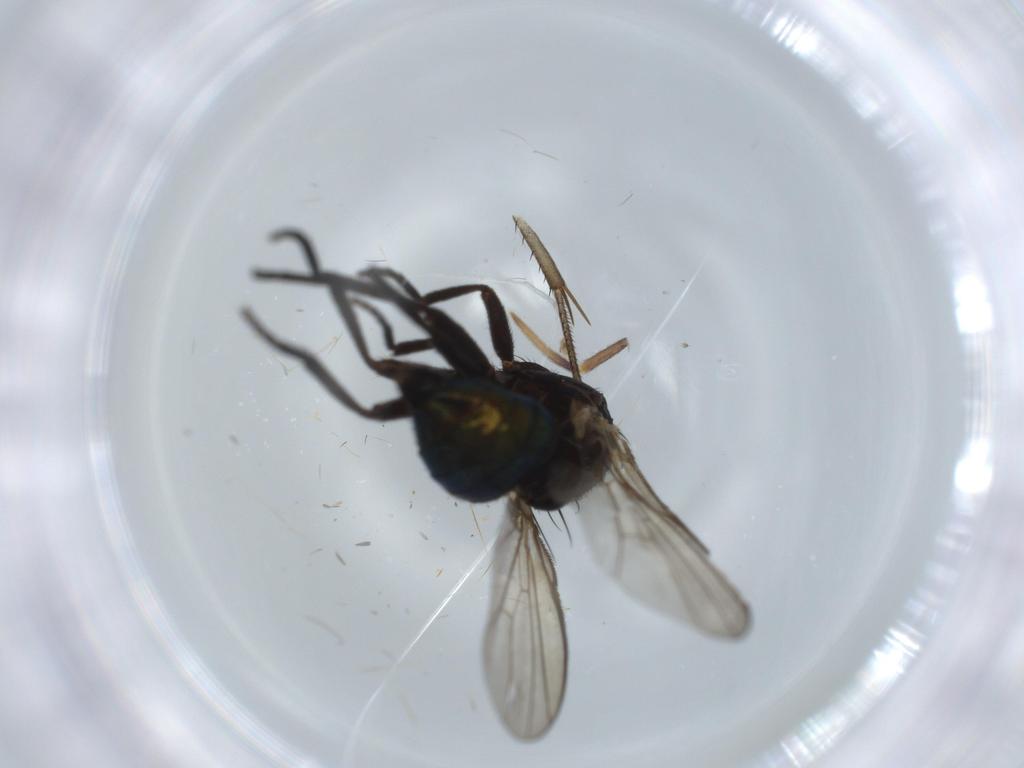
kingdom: Animalia
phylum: Arthropoda
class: Insecta
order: Diptera
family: Agromyzidae
